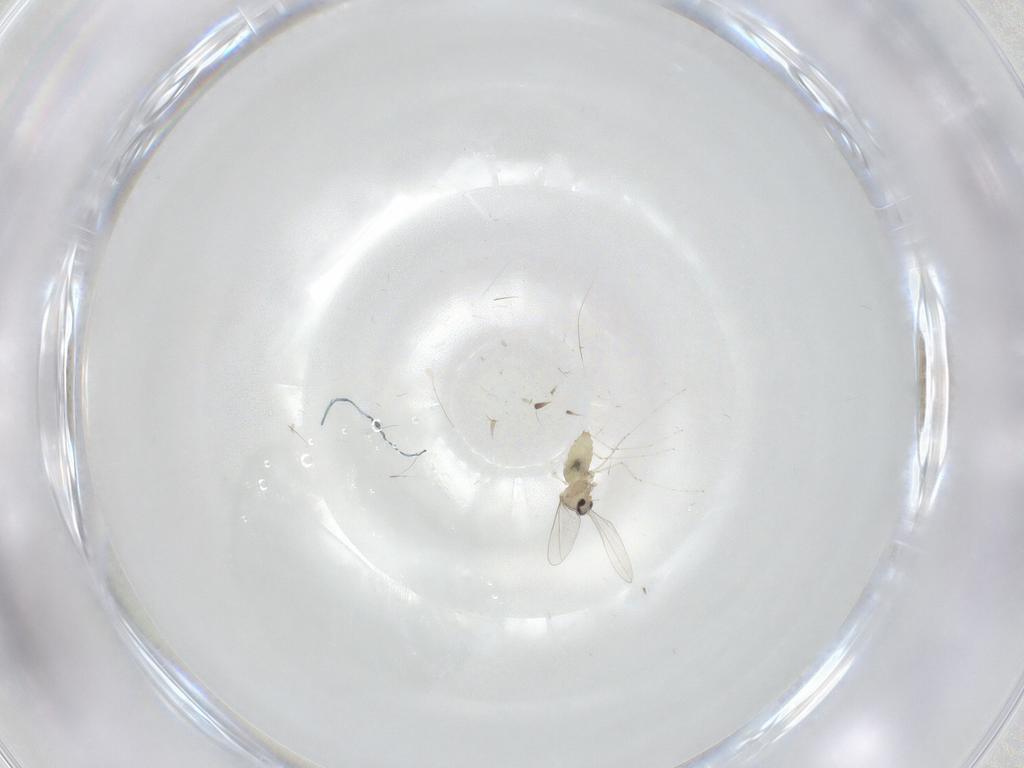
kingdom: Animalia
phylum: Arthropoda
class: Insecta
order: Diptera
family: Cecidomyiidae
